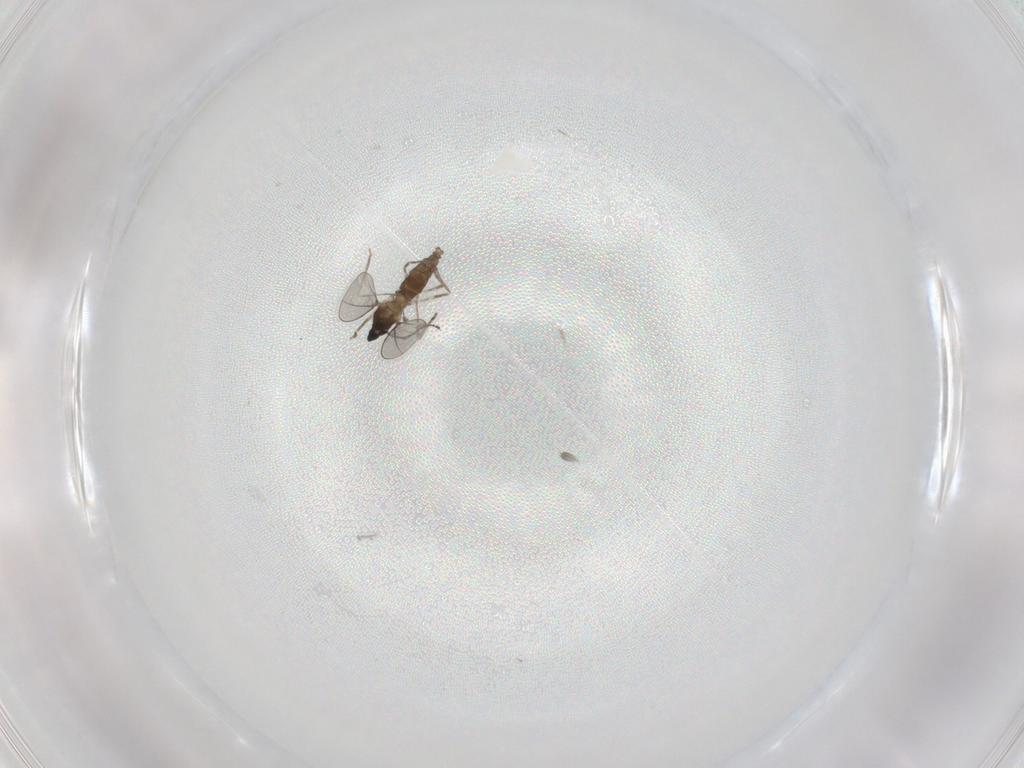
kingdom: Animalia
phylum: Arthropoda
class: Insecta
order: Diptera
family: Cecidomyiidae
